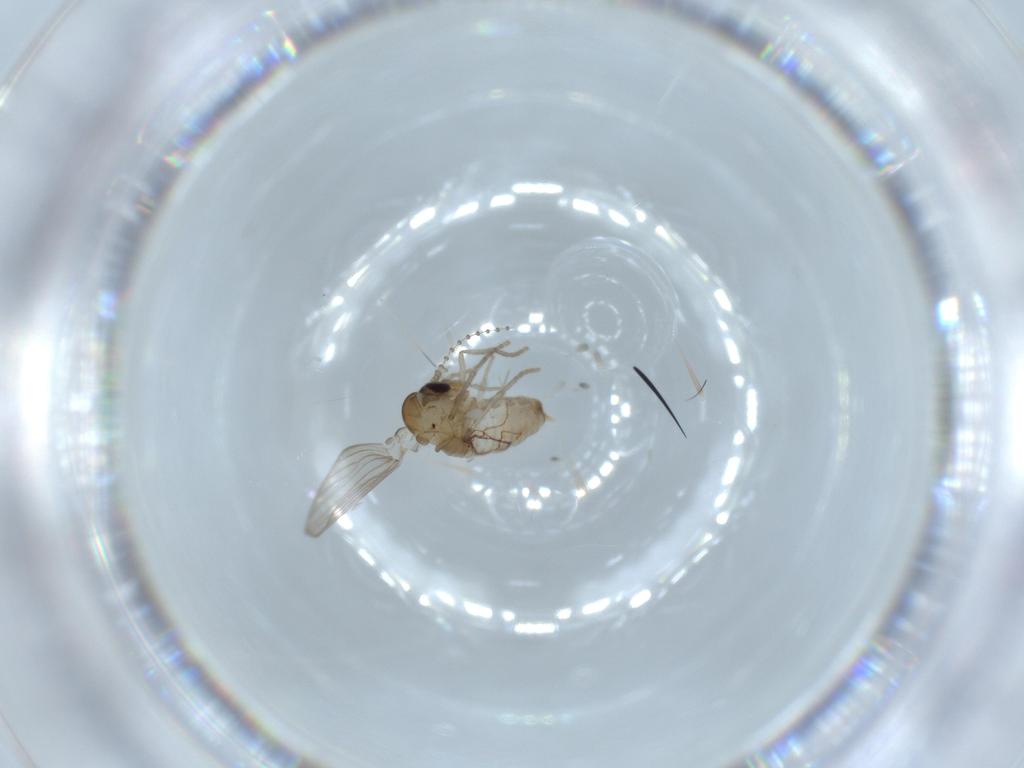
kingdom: Animalia
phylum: Arthropoda
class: Insecta
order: Diptera
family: Psychodidae
